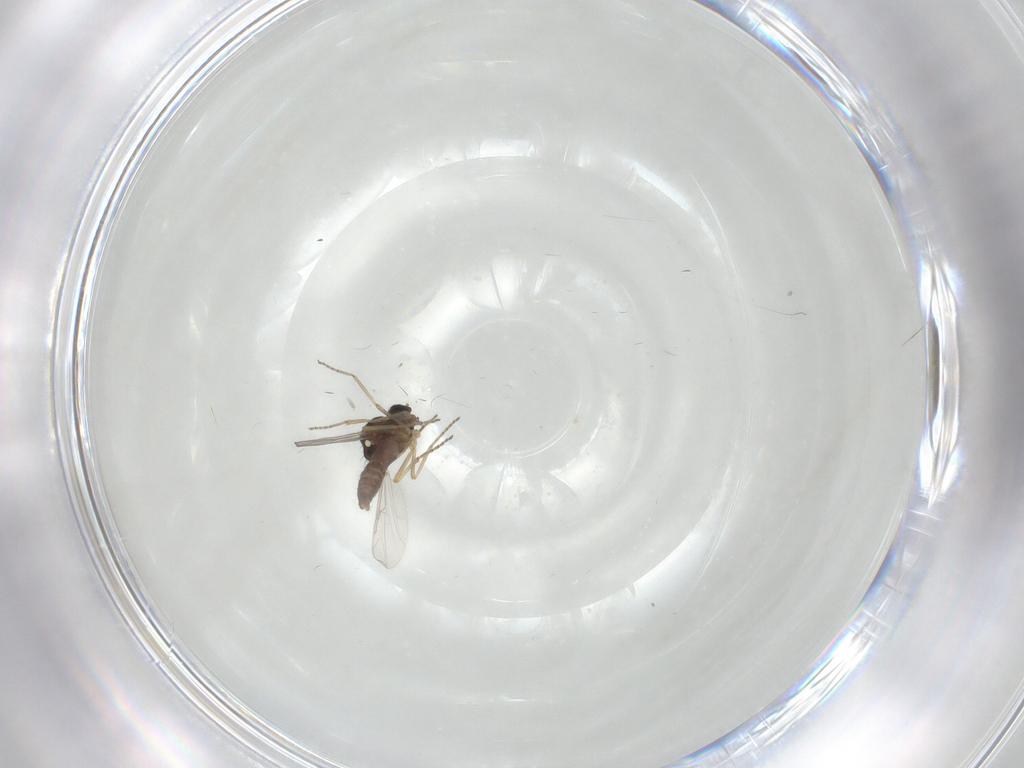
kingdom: Animalia
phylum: Arthropoda
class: Insecta
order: Diptera
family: Ceratopogonidae
